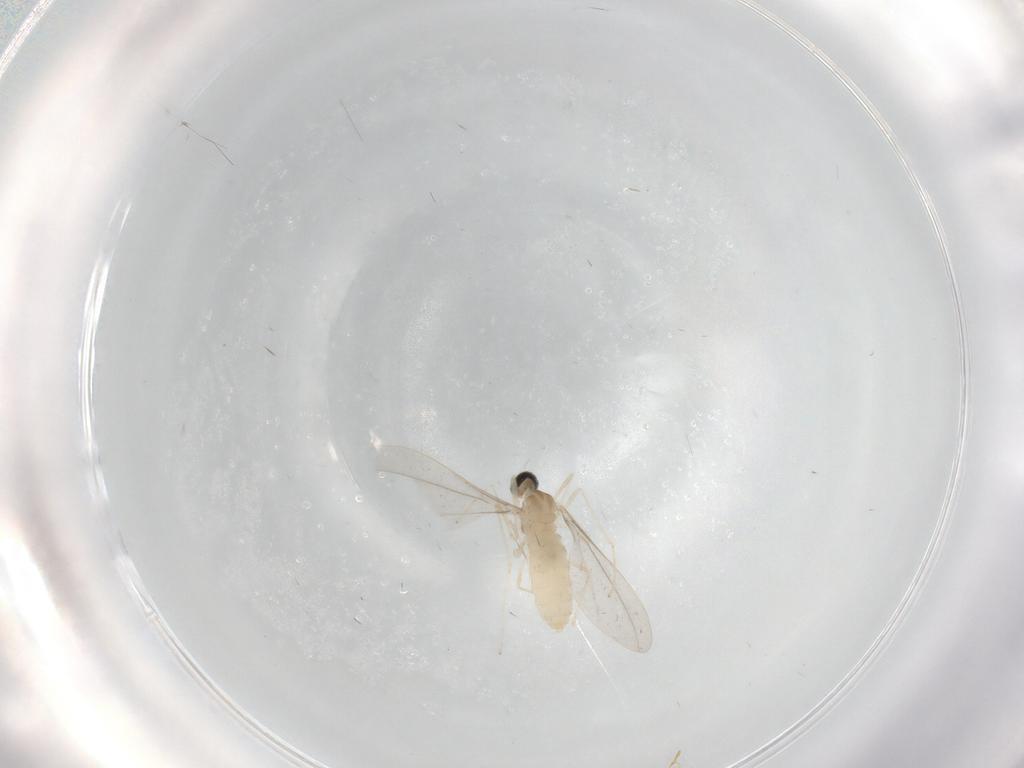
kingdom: Animalia
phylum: Arthropoda
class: Insecta
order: Diptera
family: Cecidomyiidae
